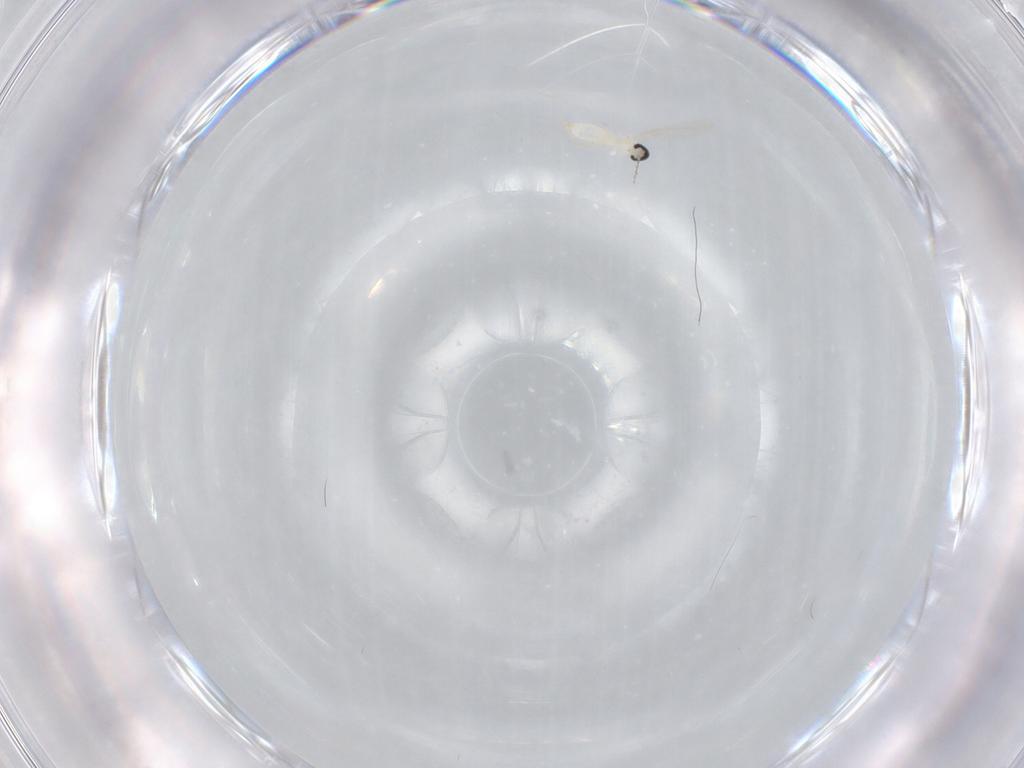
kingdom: Animalia
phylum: Arthropoda
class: Insecta
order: Diptera
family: Cecidomyiidae
